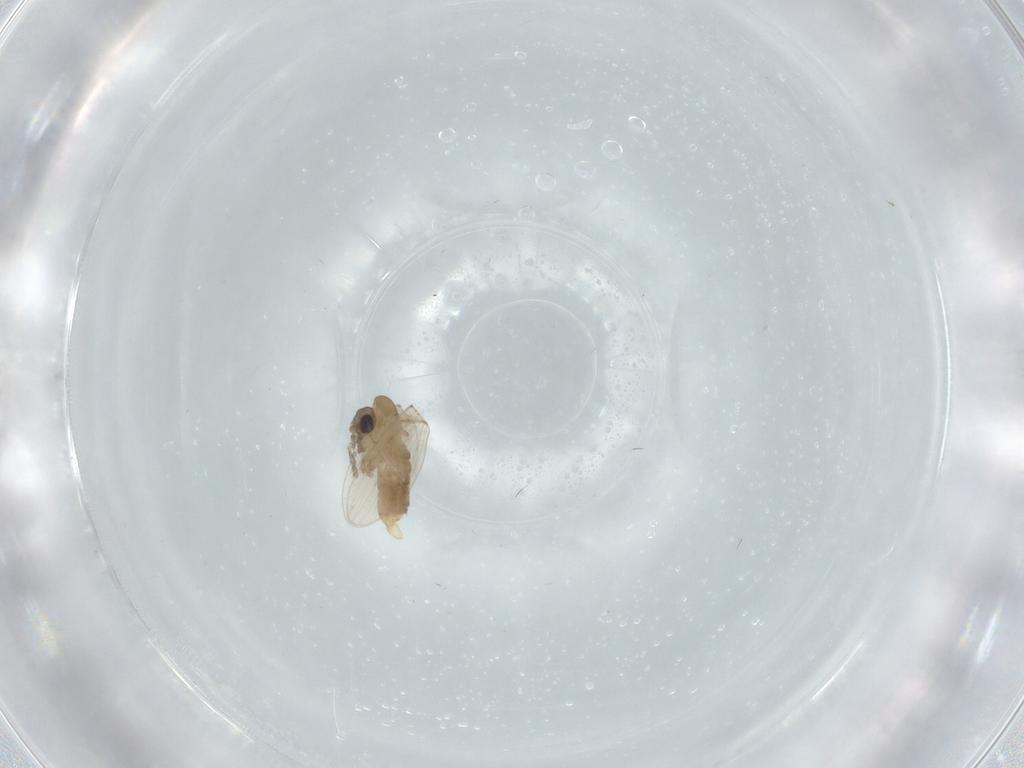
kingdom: Animalia
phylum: Arthropoda
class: Insecta
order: Diptera
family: Psychodidae
